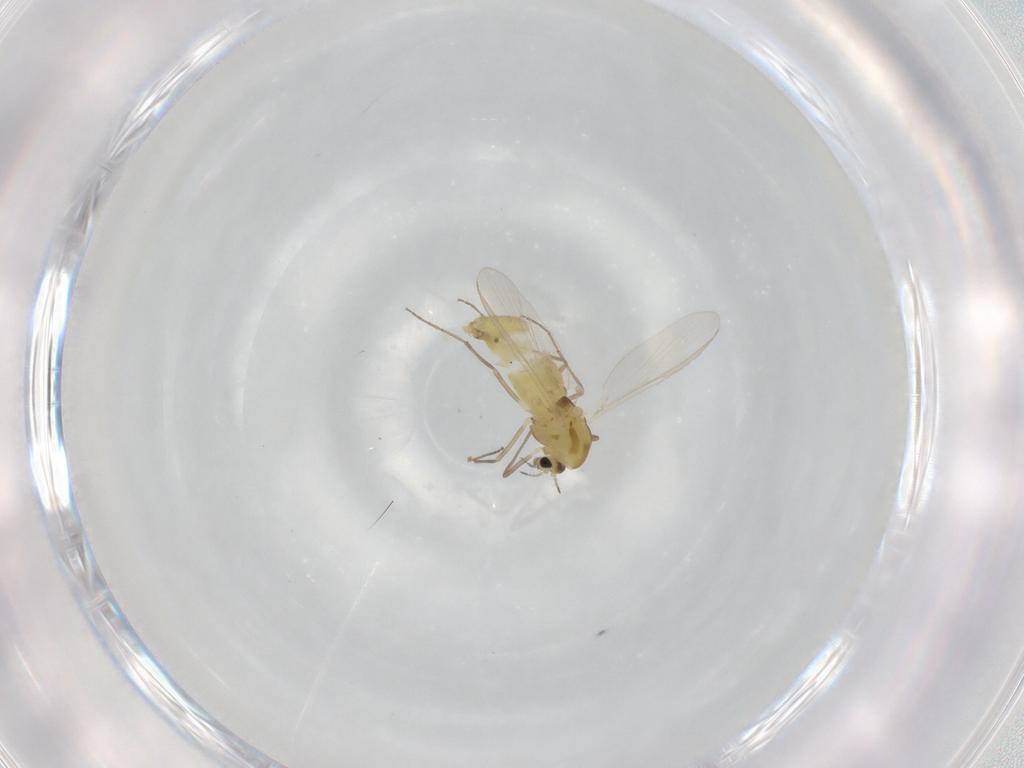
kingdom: Animalia
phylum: Arthropoda
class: Insecta
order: Diptera
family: Chironomidae
